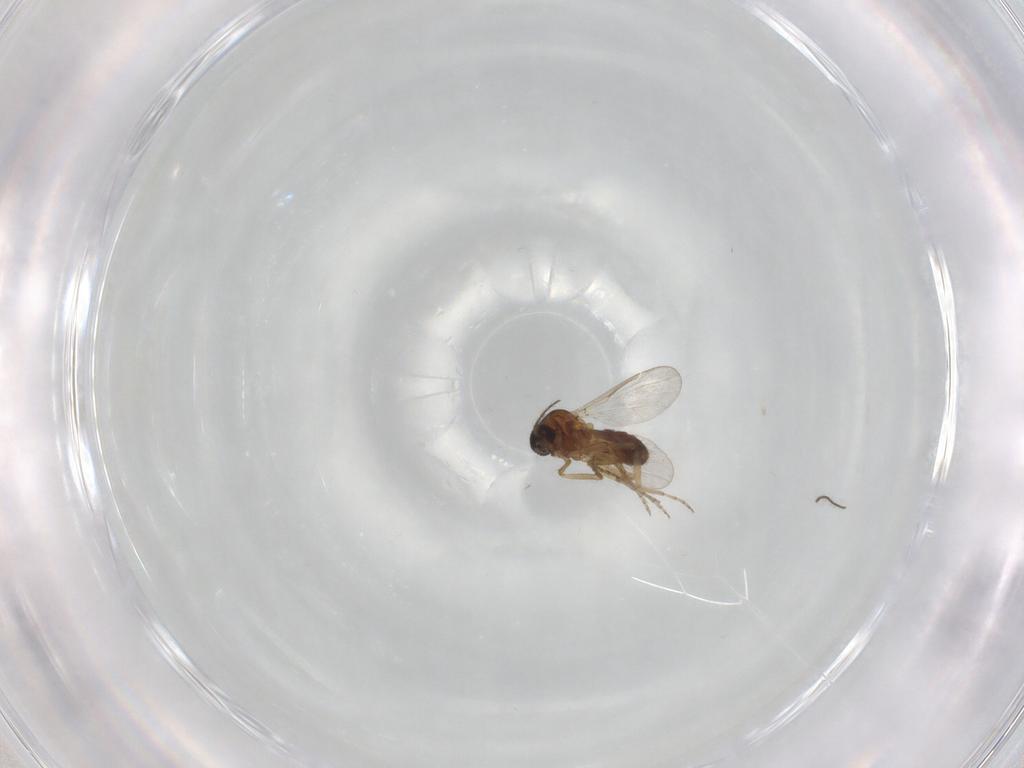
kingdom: Animalia
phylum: Arthropoda
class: Insecta
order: Diptera
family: Ceratopogonidae
